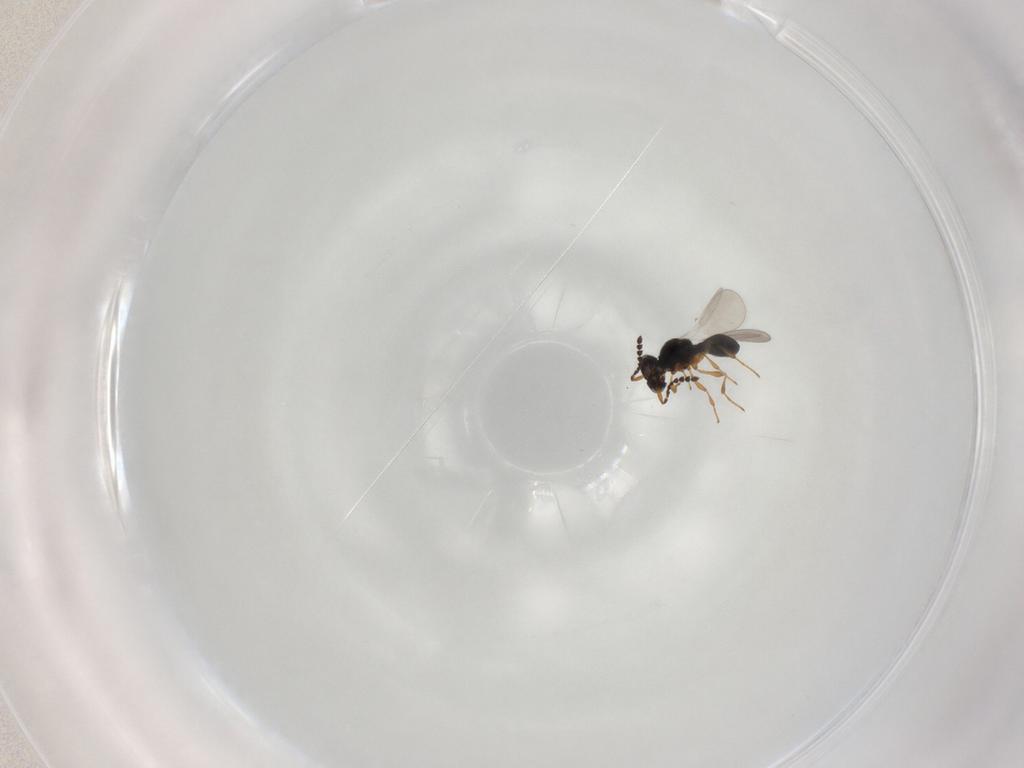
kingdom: Animalia
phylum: Arthropoda
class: Insecta
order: Hymenoptera
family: Platygastridae
